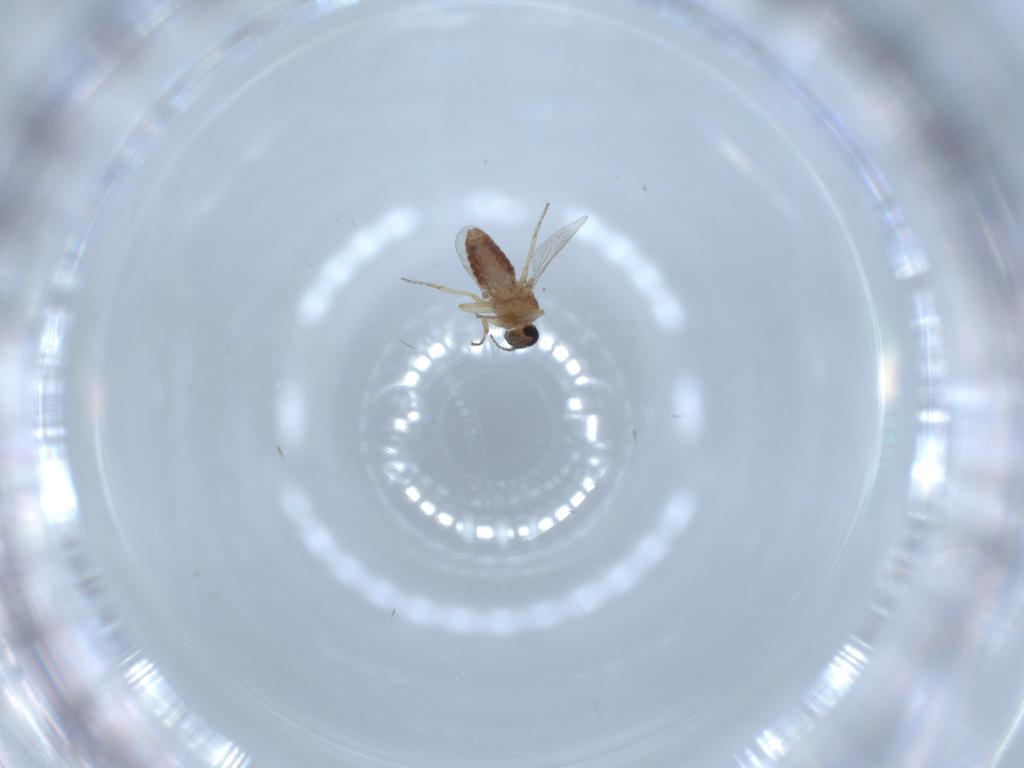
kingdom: Animalia
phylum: Arthropoda
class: Insecta
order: Diptera
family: Ceratopogonidae
